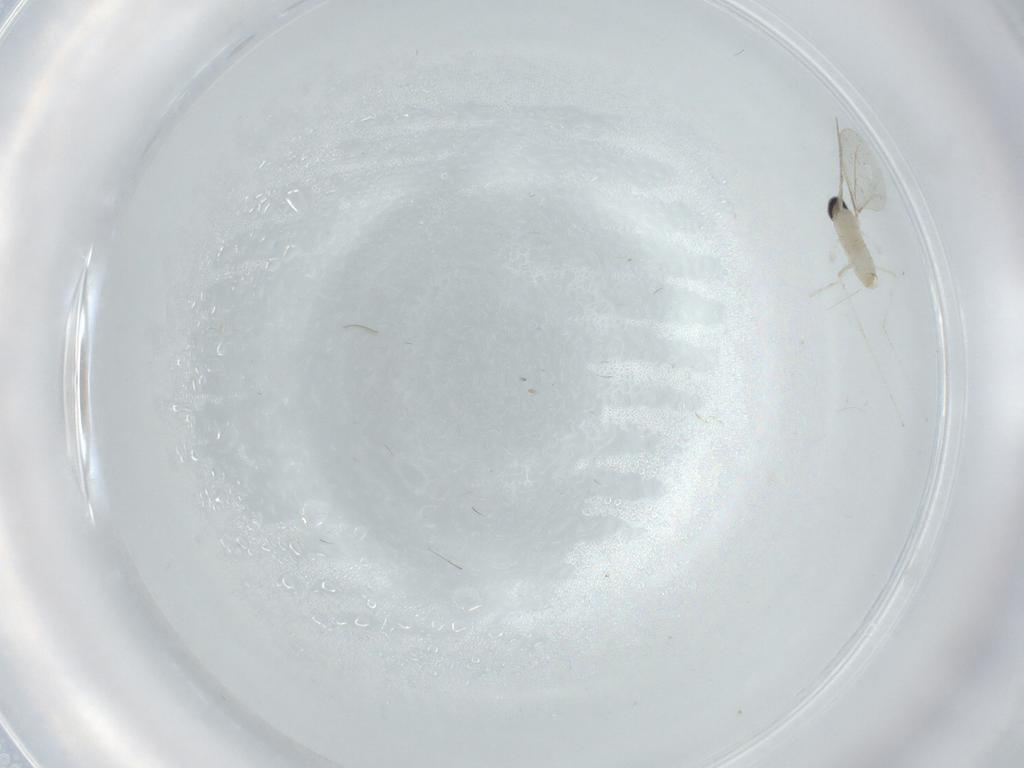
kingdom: Animalia
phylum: Arthropoda
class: Insecta
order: Diptera
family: Cecidomyiidae
